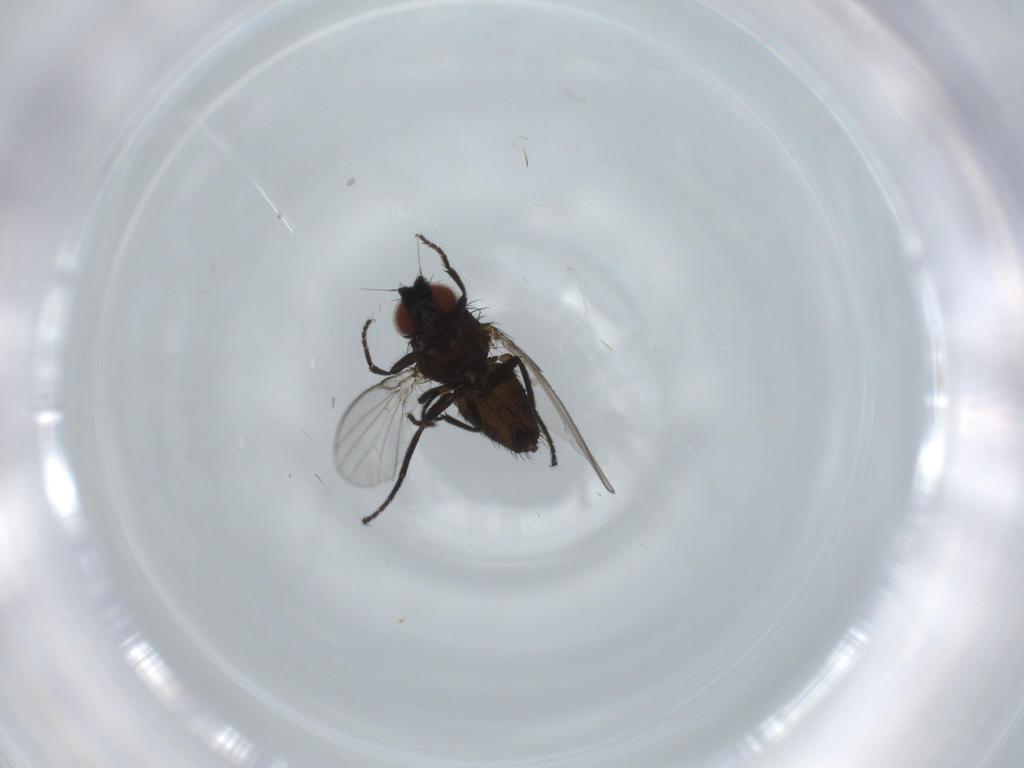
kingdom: Animalia
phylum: Arthropoda
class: Insecta
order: Diptera
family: Milichiidae
